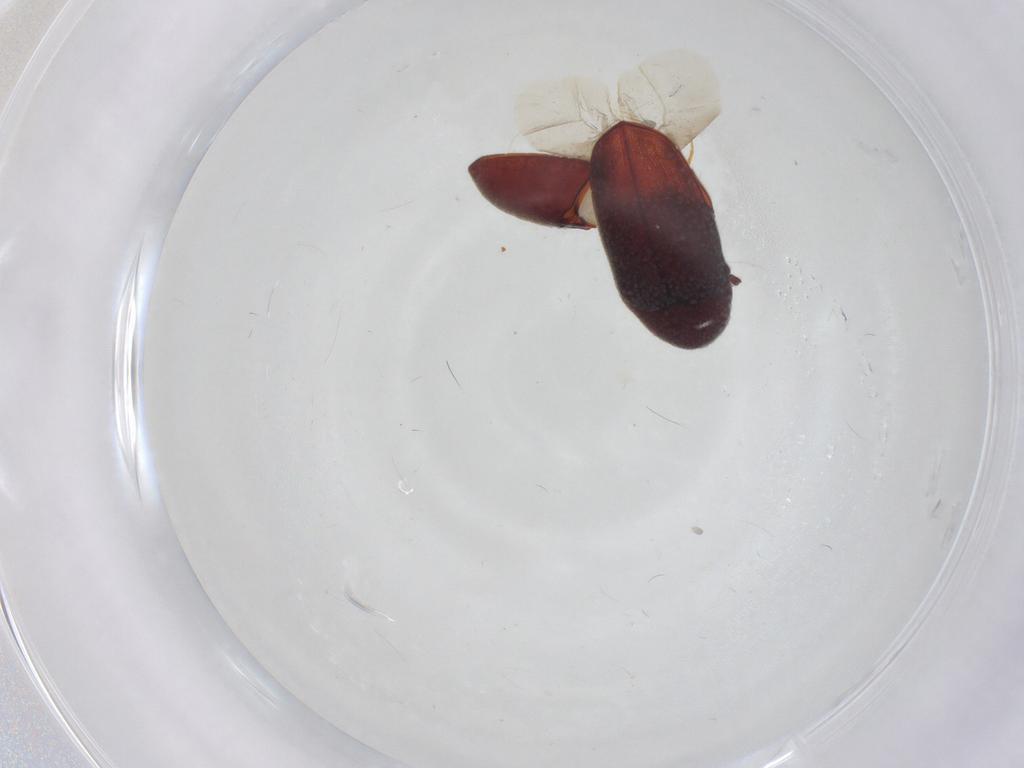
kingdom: Animalia
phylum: Arthropoda
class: Insecta
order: Coleoptera
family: Throscidae
